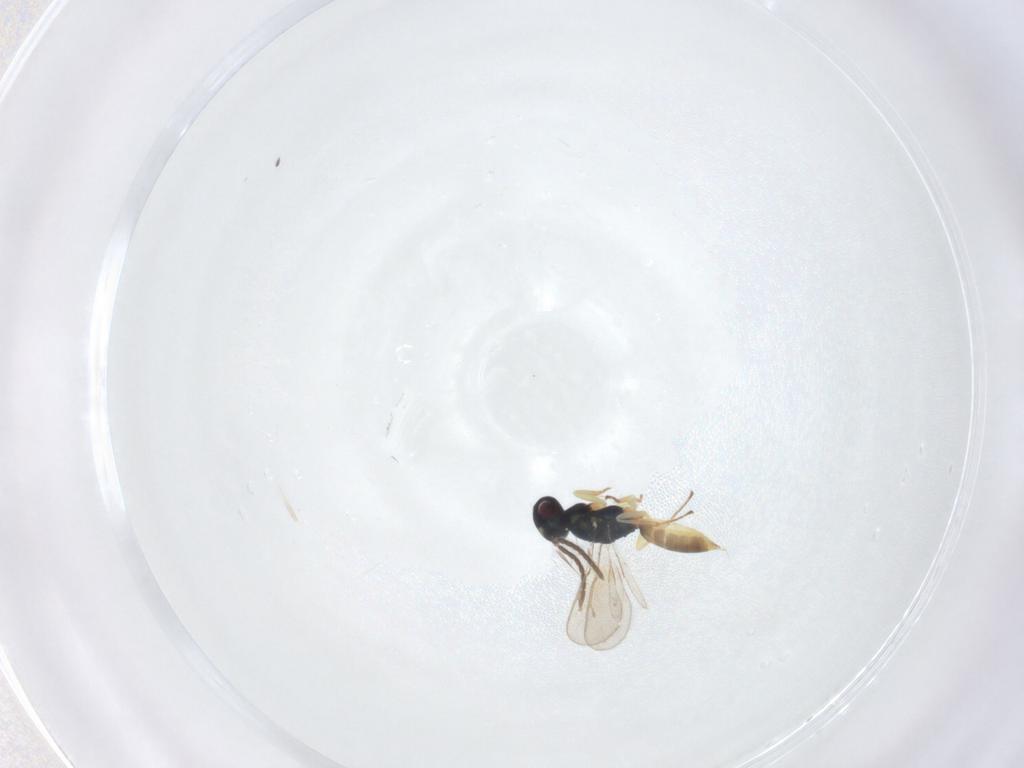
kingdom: Animalia
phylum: Arthropoda
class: Insecta
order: Hymenoptera
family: Pteromalidae
